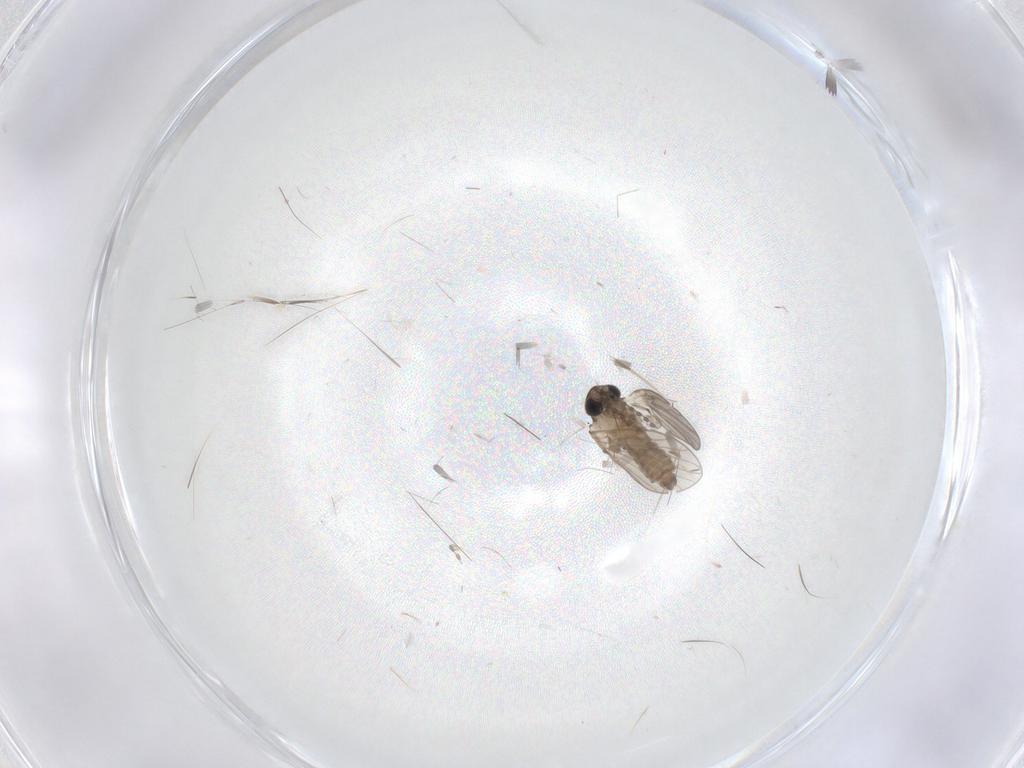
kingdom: Animalia
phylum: Arthropoda
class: Insecta
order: Diptera
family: Psychodidae
